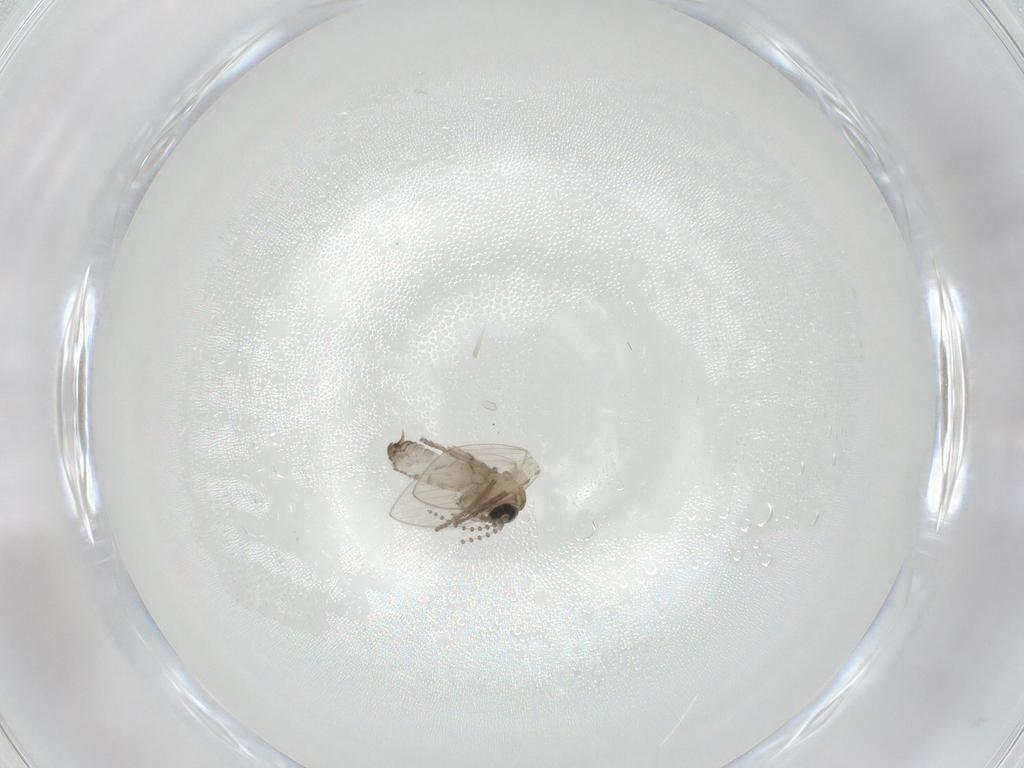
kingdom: Animalia
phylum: Arthropoda
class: Insecta
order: Diptera
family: Psychodidae
